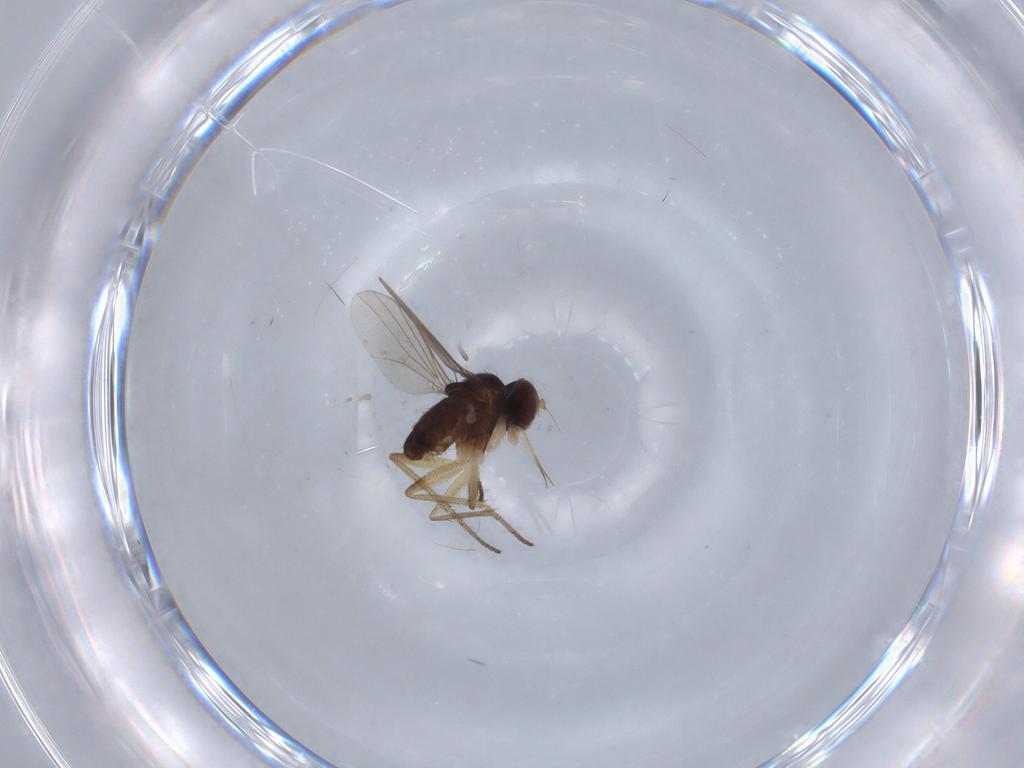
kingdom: Animalia
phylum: Arthropoda
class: Insecta
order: Diptera
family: Dolichopodidae
